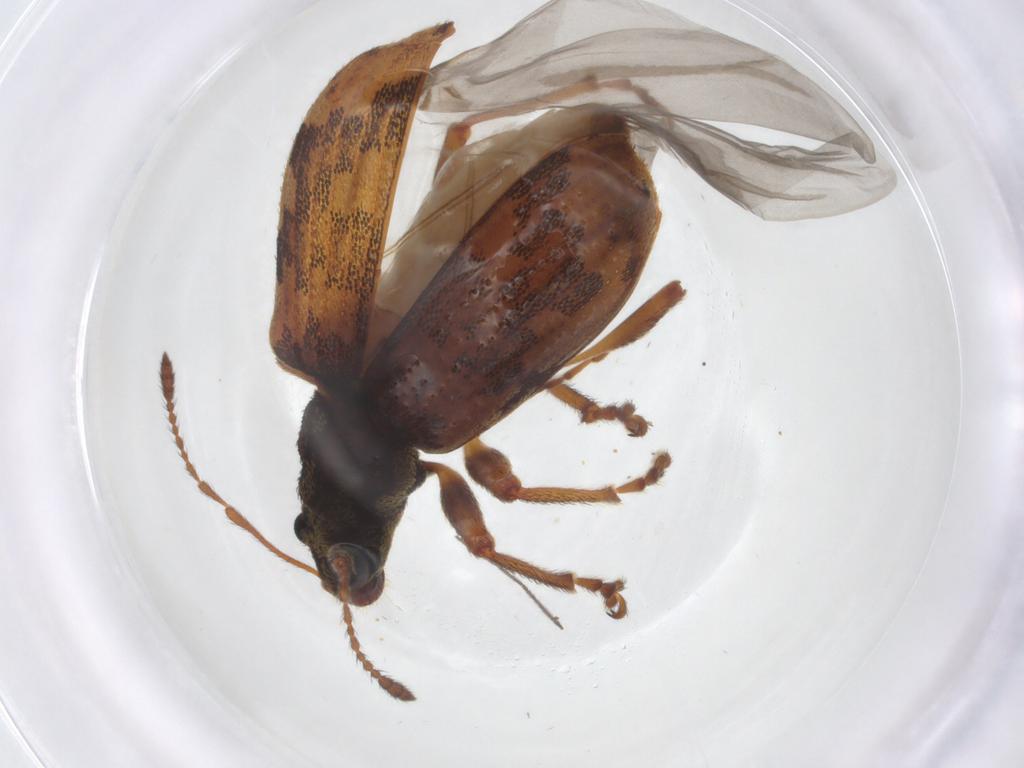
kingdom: Animalia
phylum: Arthropoda
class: Insecta
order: Coleoptera
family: Curculionidae
